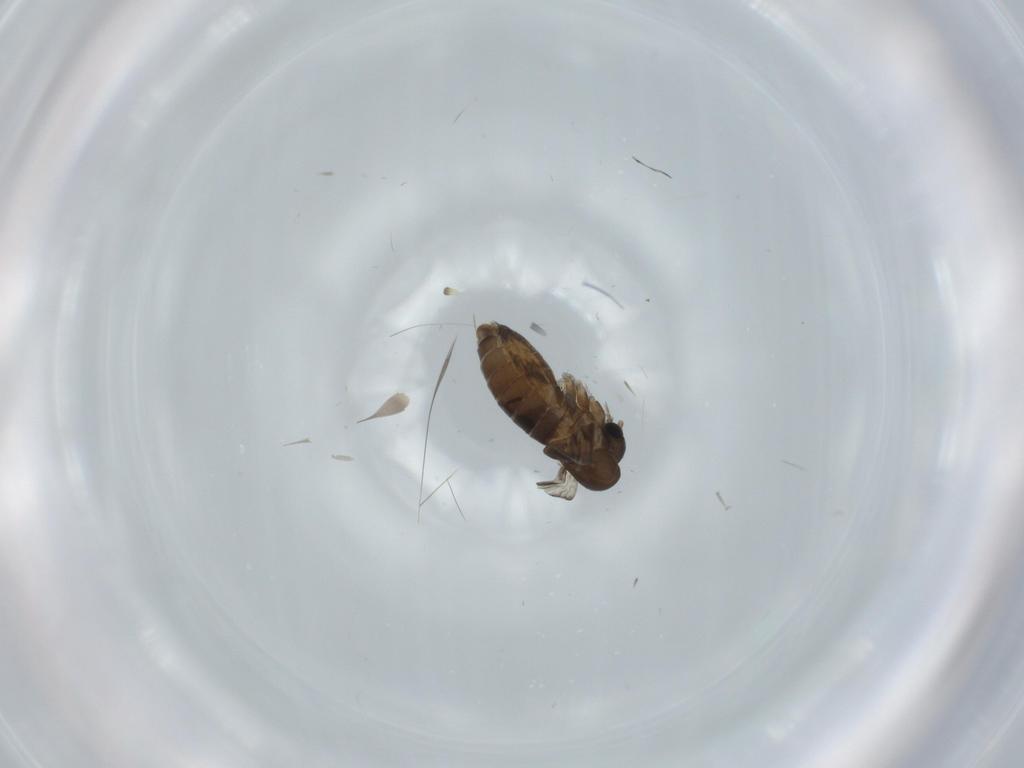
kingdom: Animalia
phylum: Arthropoda
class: Insecta
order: Diptera
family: Psychodidae
